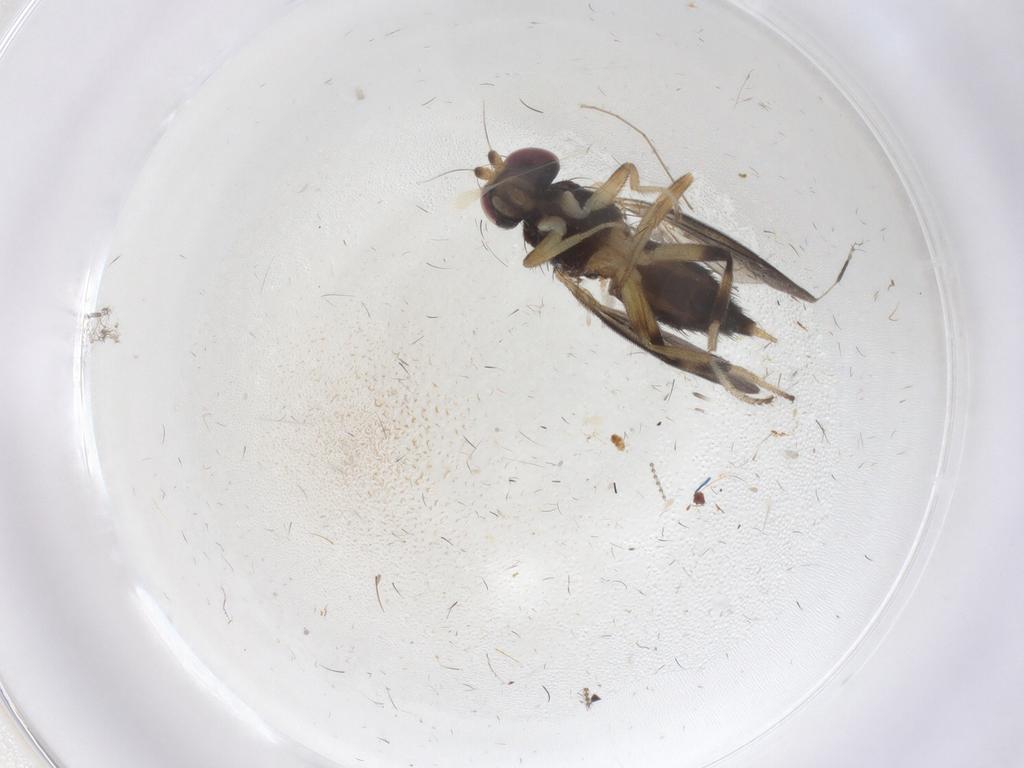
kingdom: Animalia
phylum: Arthropoda
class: Insecta
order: Diptera
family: Clusiidae
